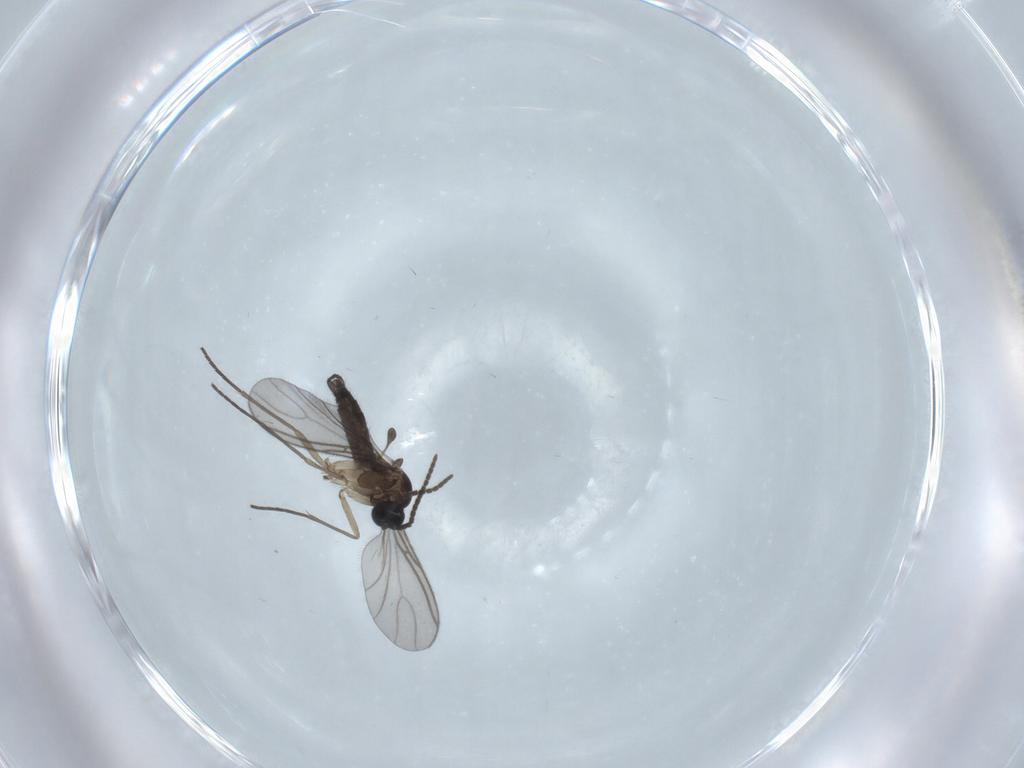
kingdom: Animalia
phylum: Arthropoda
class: Insecta
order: Diptera
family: Sciaridae
